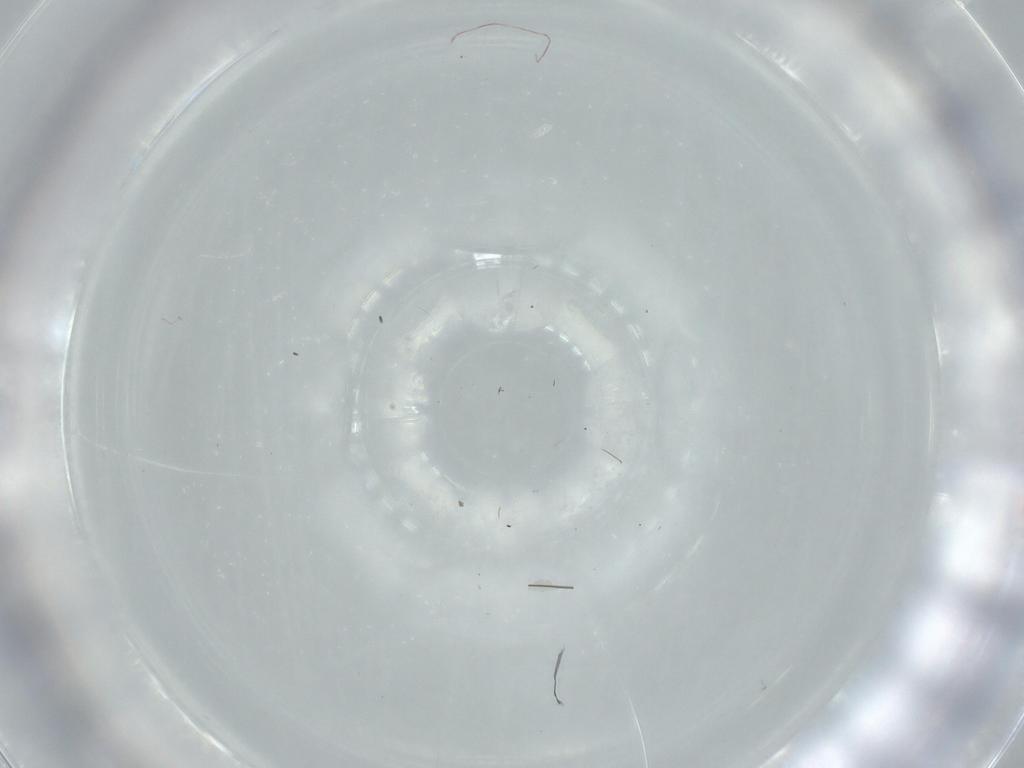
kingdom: Animalia
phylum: Arthropoda
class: Insecta
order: Psocodea
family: Lepidopsocidae
